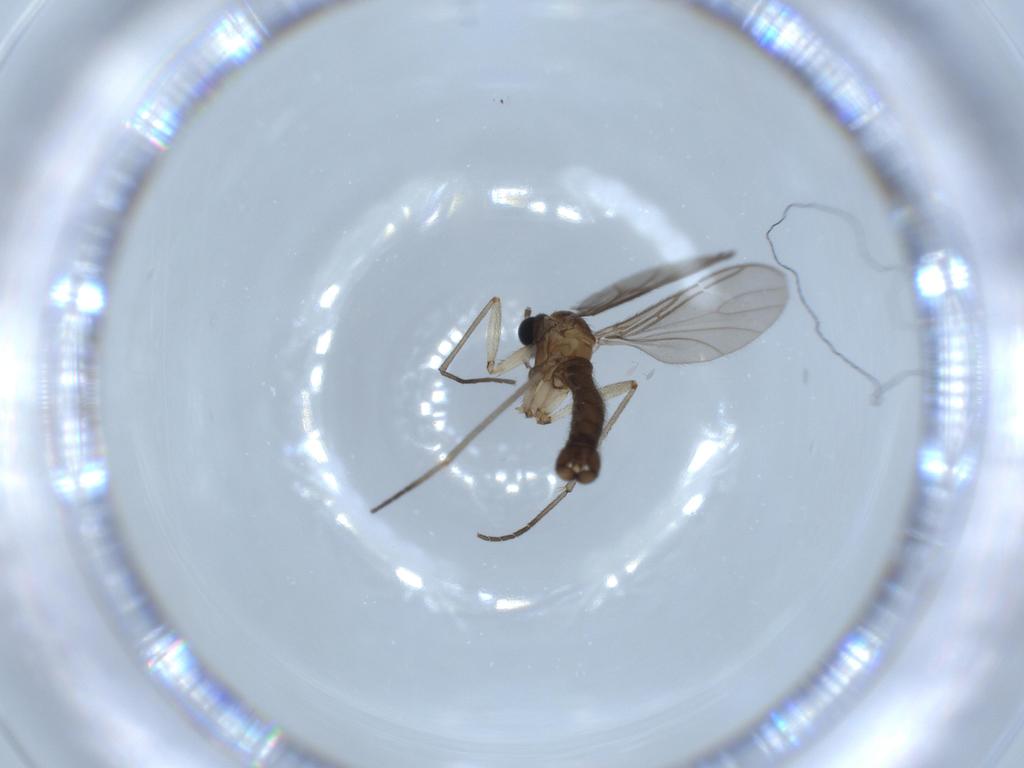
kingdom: Animalia
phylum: Arthropoda
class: Insecta
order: Diptera
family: Sciaridae
